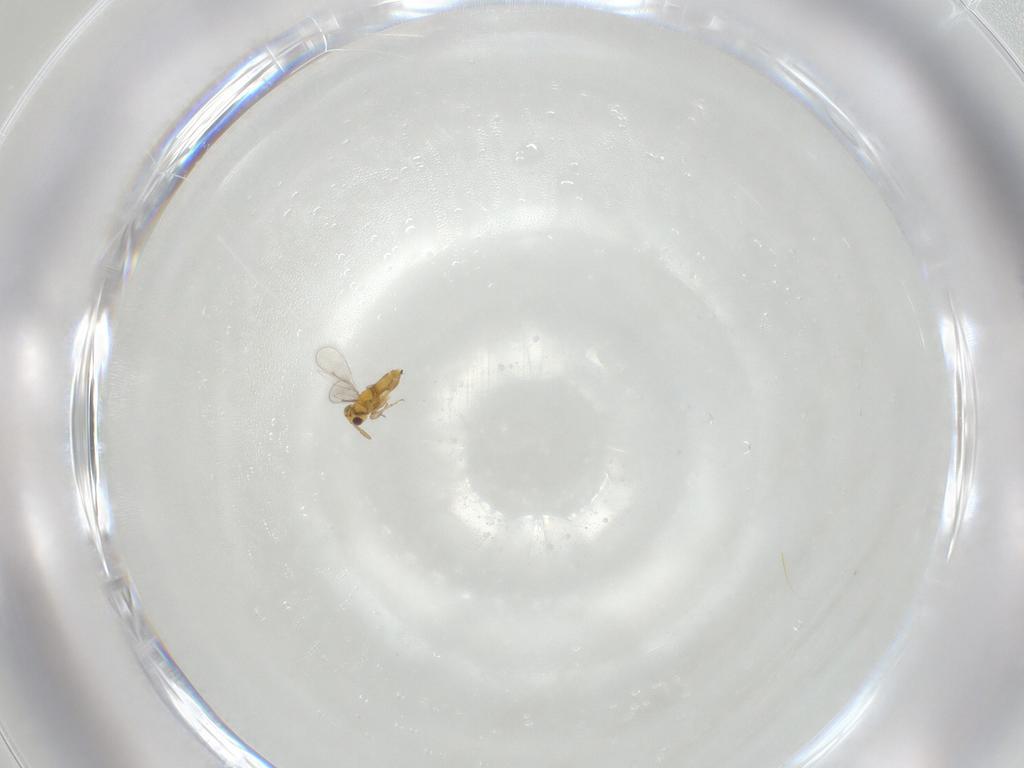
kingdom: Animalia
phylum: Arthropoda
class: Insecta
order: Hymenoptera
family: Aphelinidae
